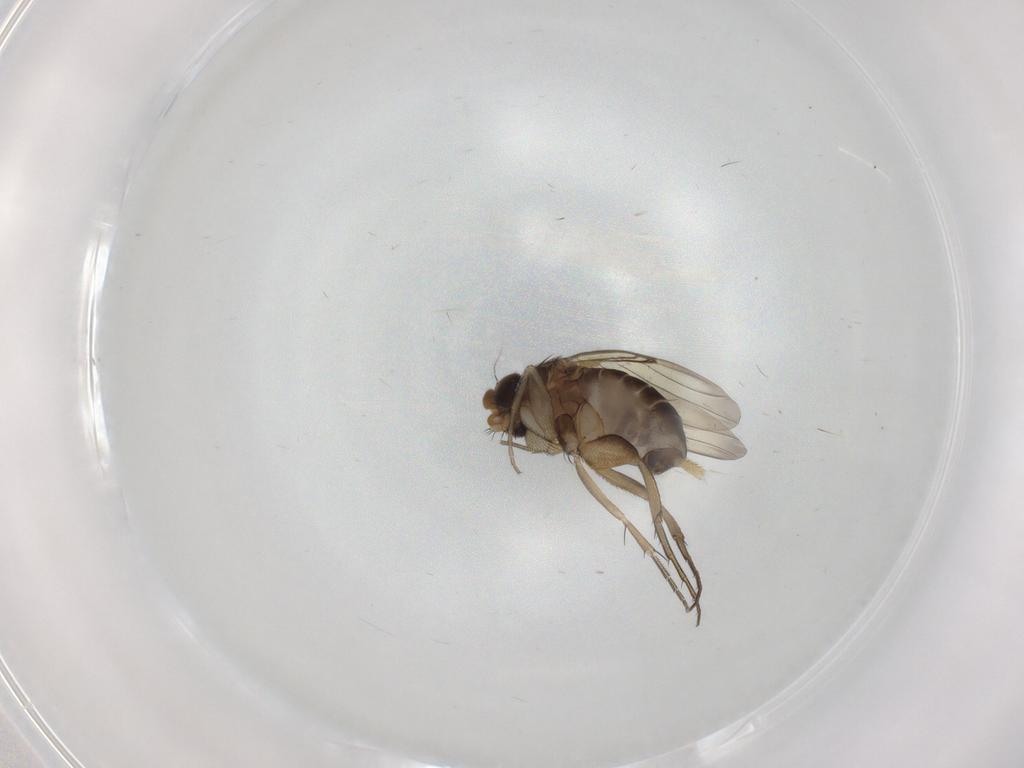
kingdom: Animalia
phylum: Arthropoda
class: Insecta
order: Diptera
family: Phoridae
